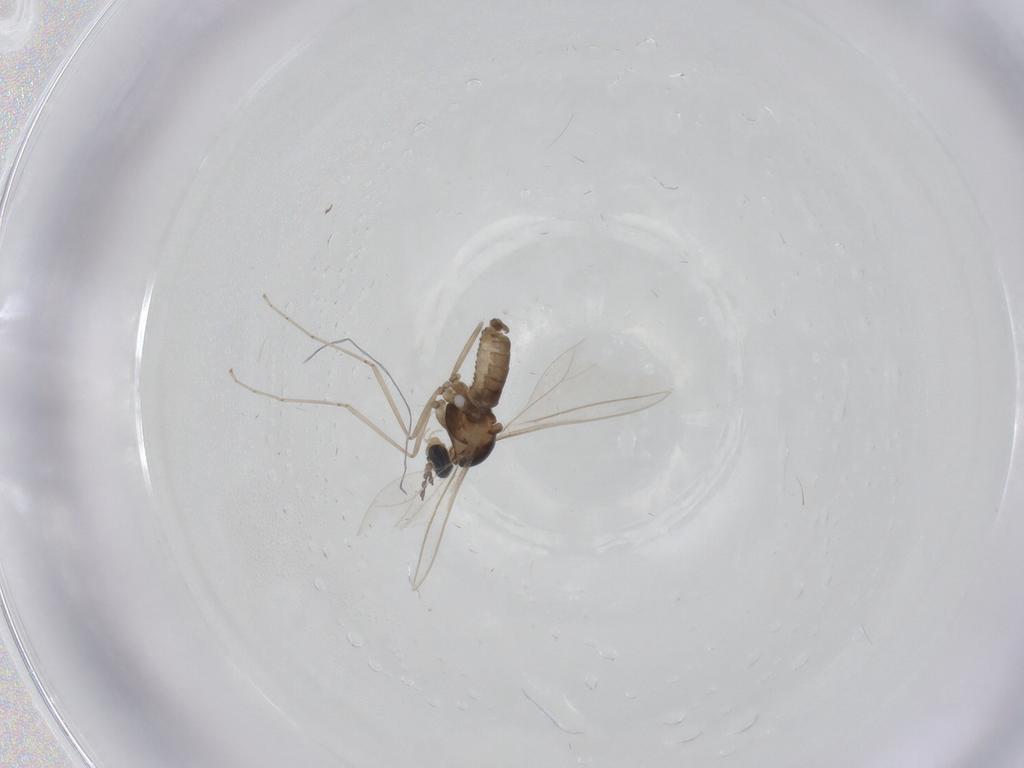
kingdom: Animalia
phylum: Arthropoda
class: Insecta
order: Diptera
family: Cecidomyiidae
